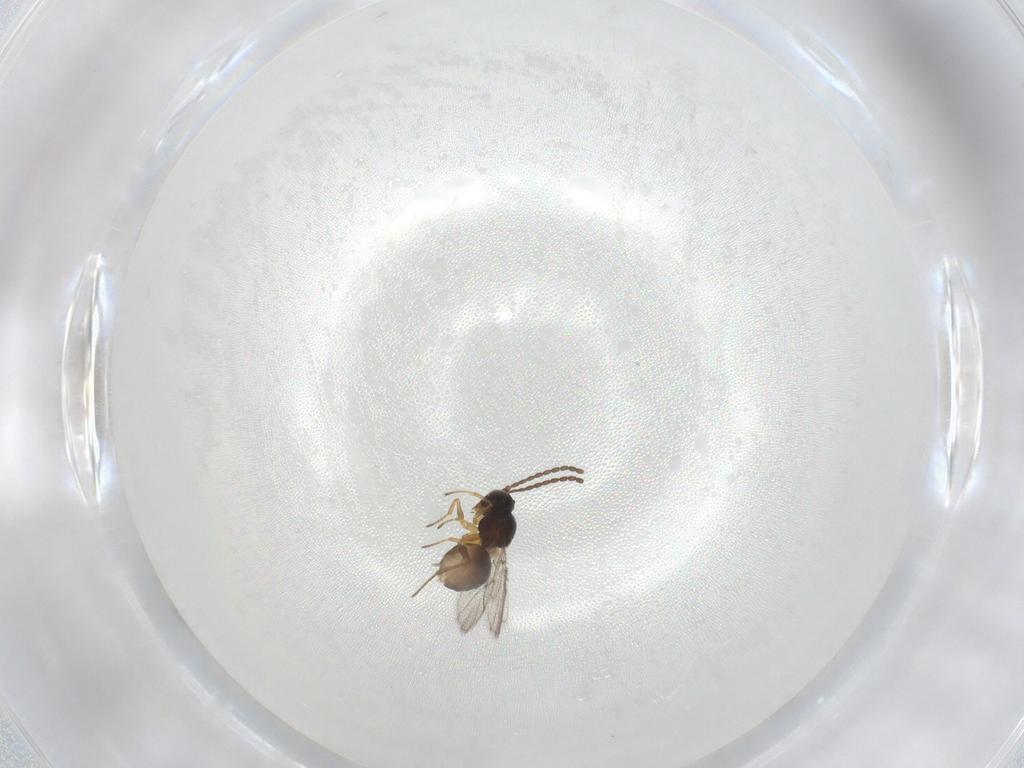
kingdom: Animalia
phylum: Arthropoda
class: Insecta
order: Hymenoptera
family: Figitidae
